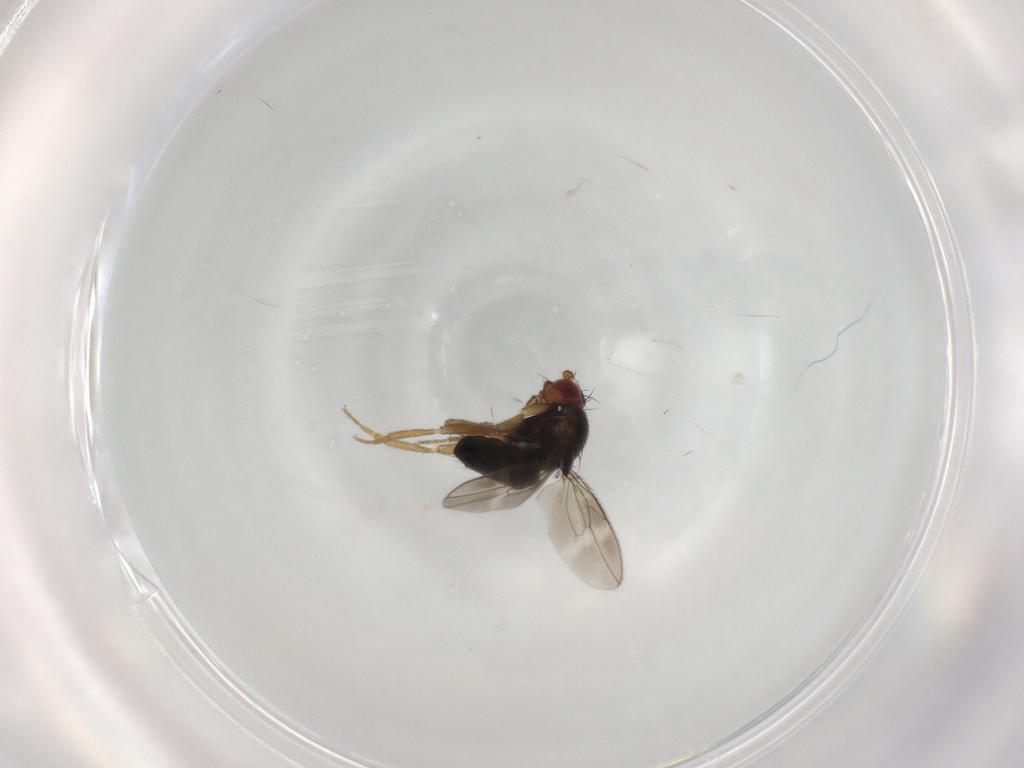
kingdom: Animalia
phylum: Arthropoda
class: Insecta
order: Diptera
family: Sphaeroceridae
